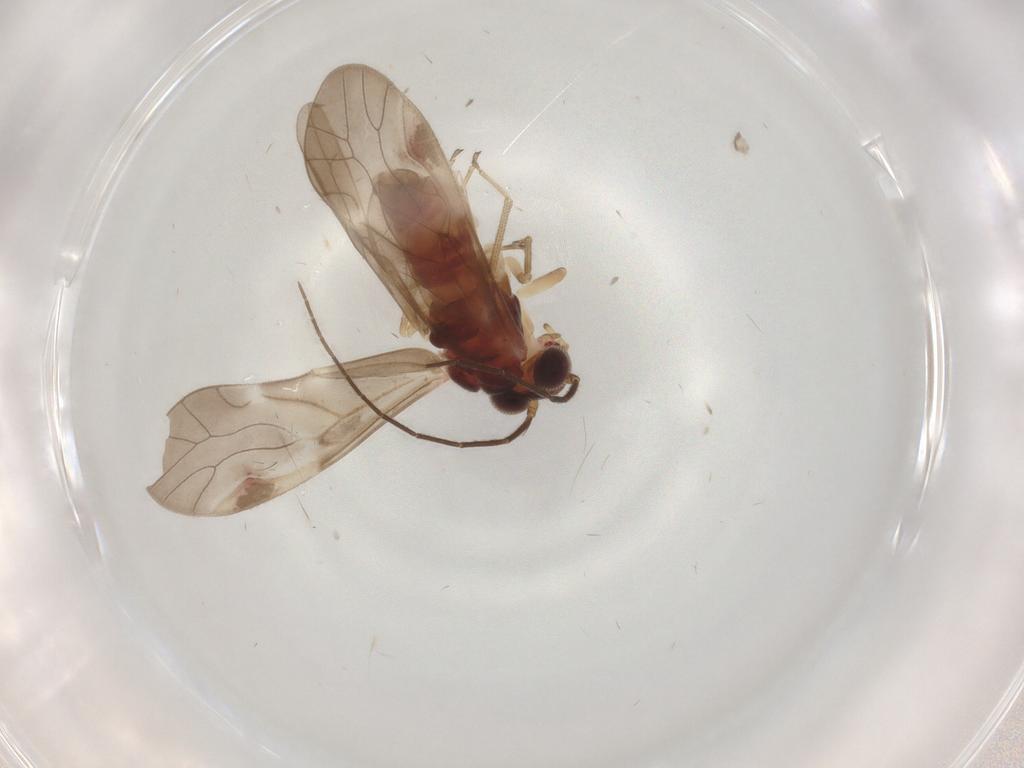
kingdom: Animalia
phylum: Arthropoda
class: Insecta
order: Psocodea
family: Caeciliusidae
